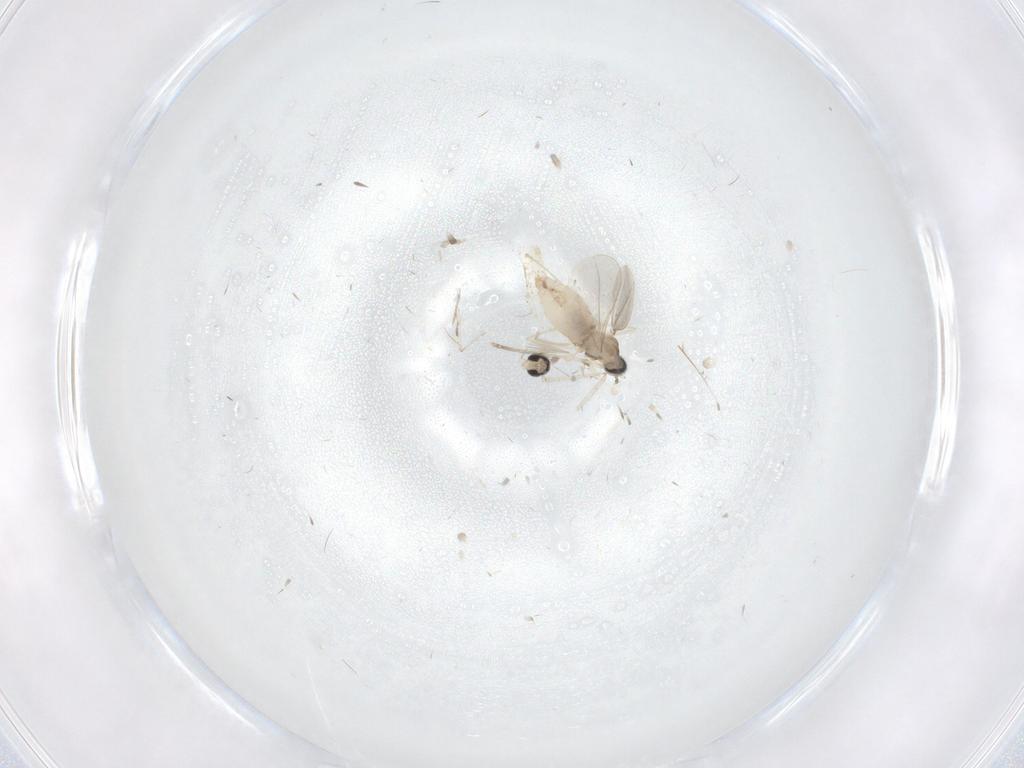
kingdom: Animalia
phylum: Arthropoda
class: Insecta
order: Diptera
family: Cecidomyiidae
